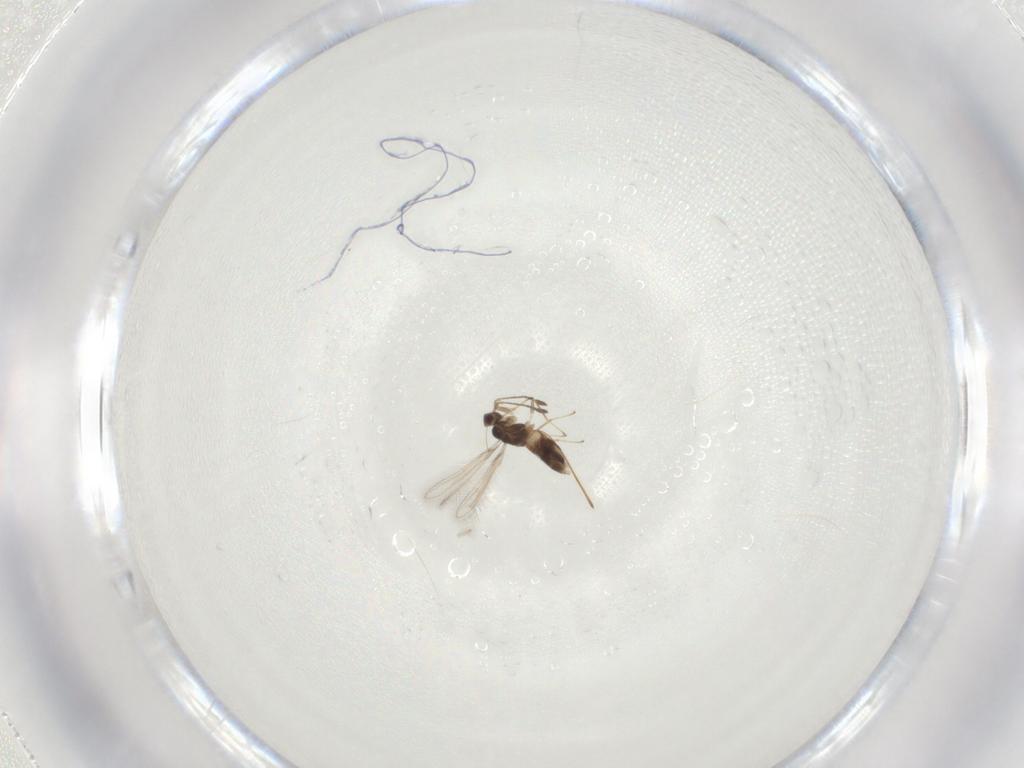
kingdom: Animalia
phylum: Arthropoda
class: Insecta
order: Hymenoptera
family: Mymaridae
